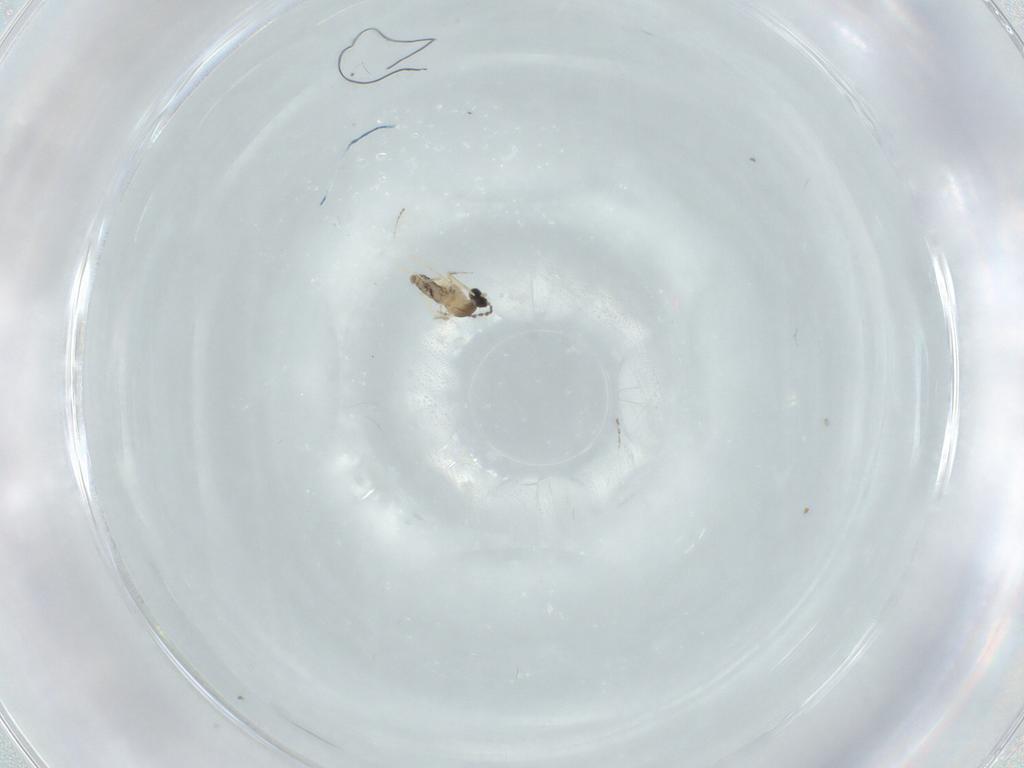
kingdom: Animalia
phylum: Arthropoda
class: Insecta
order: Diptera
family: Cecidomyiidae
